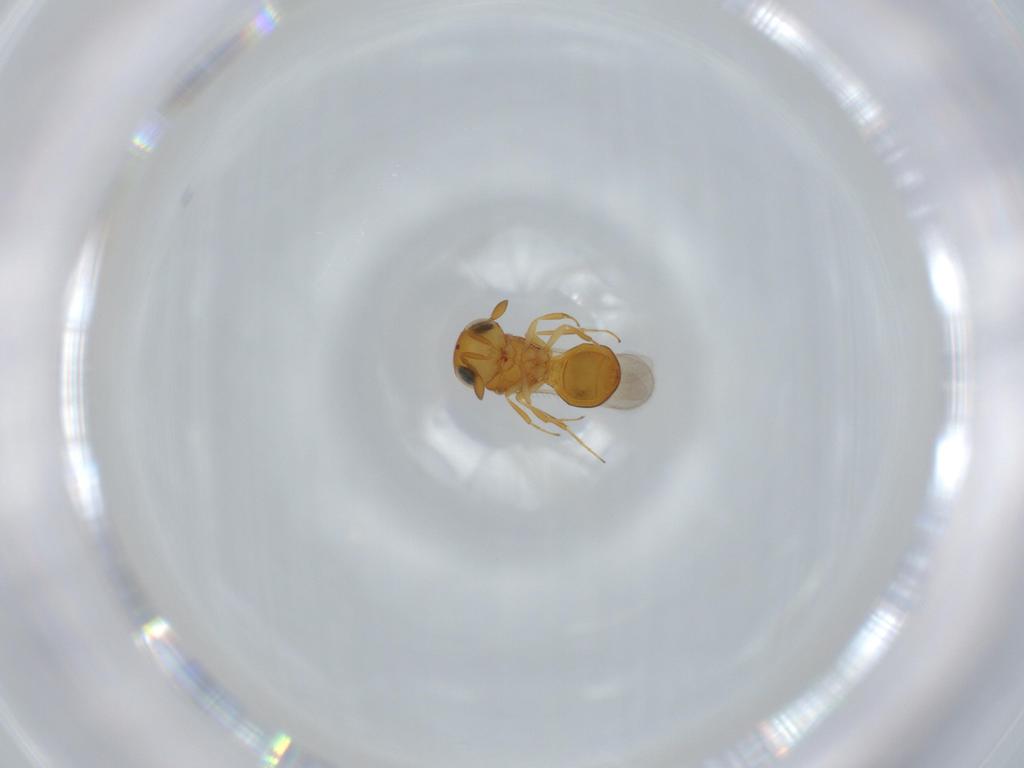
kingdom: Animalia
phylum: Arthropoda
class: Insecta
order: Hymenoptera
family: Scelionidae
